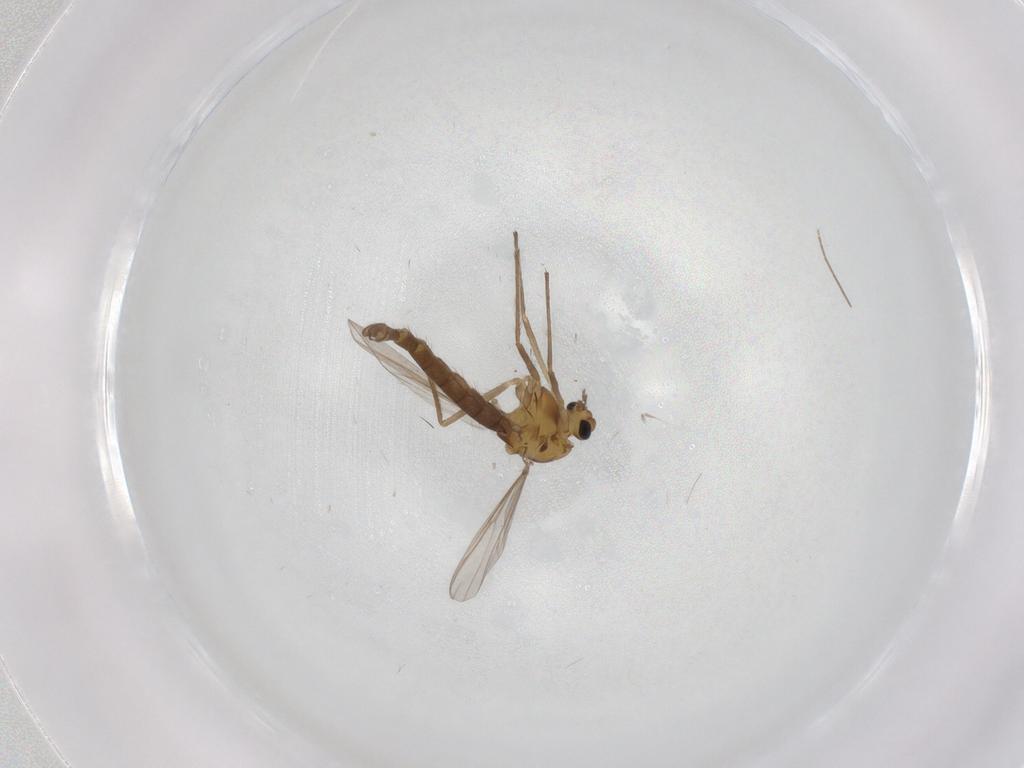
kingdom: Animalia
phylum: Arthropoda
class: Insecta
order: Diptera
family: Chironomidae
